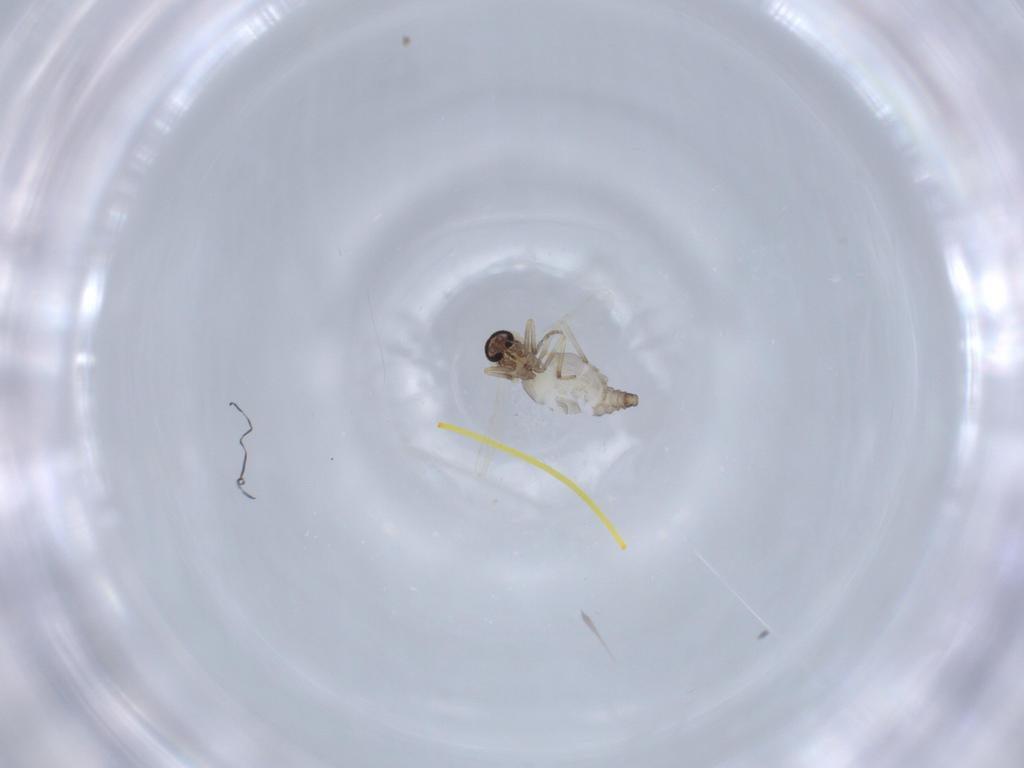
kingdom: Animalia
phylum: Arthropoda
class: Insecta
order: Diptera
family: Ceratopogonidae
